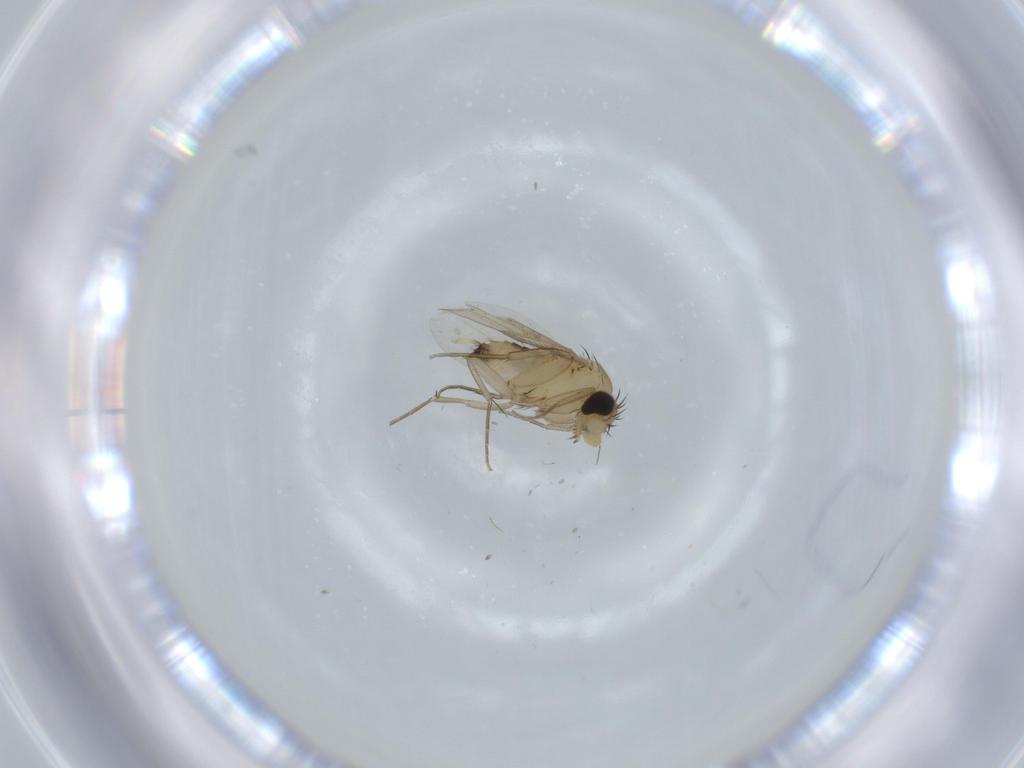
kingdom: Animalia
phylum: Arthropoda
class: Insecta
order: Diptera
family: Phoridae
